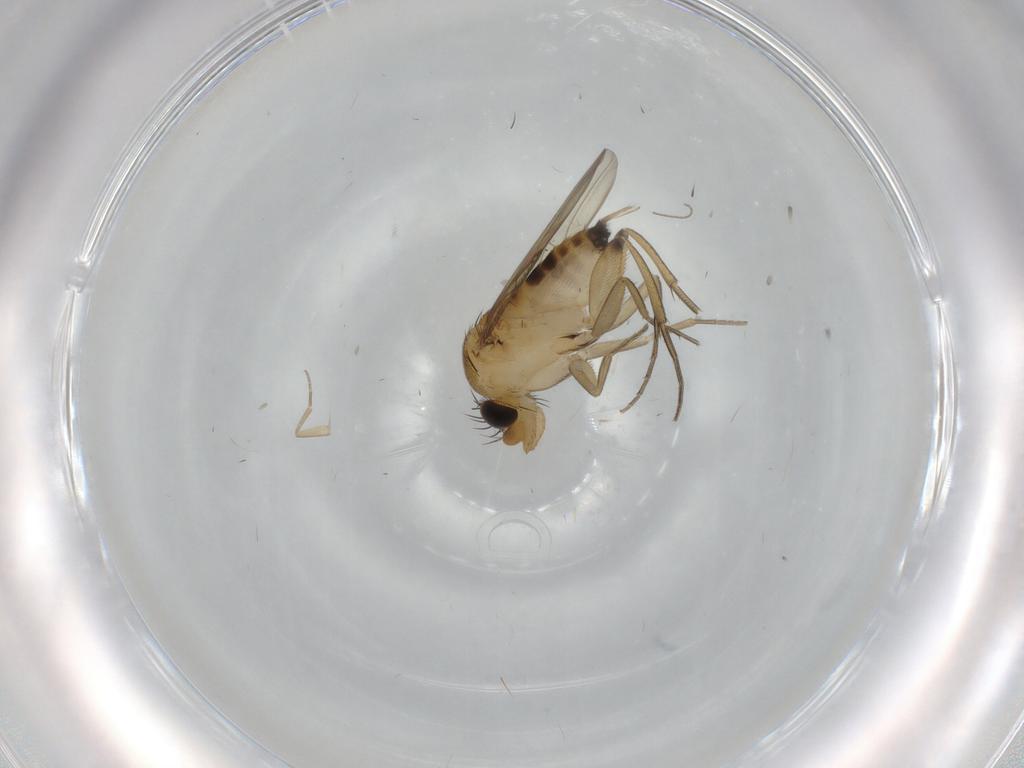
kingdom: Animalia
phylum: Arthropoda
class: Insecta
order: Diptera
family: Phoridae
